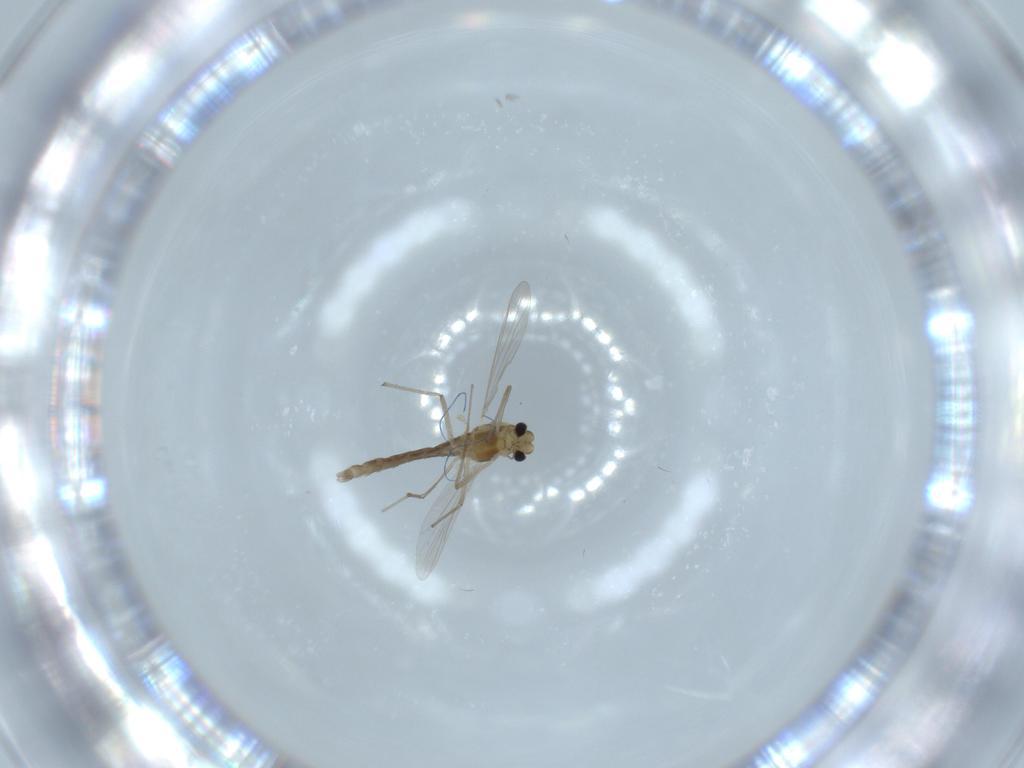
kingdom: Animalia
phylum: Arthropoda
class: Insecta
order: Diptera
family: Chironomidae
